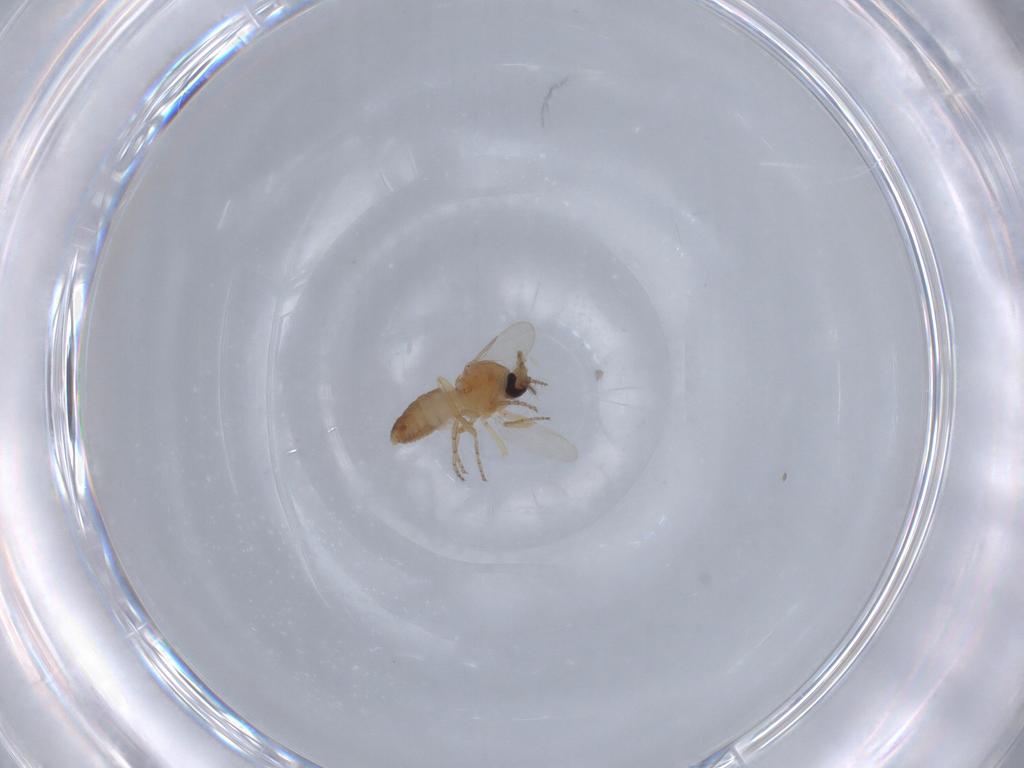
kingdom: Animalia
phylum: Arthropoda
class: Insecta
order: Diptera
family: Ceratopogonidae
